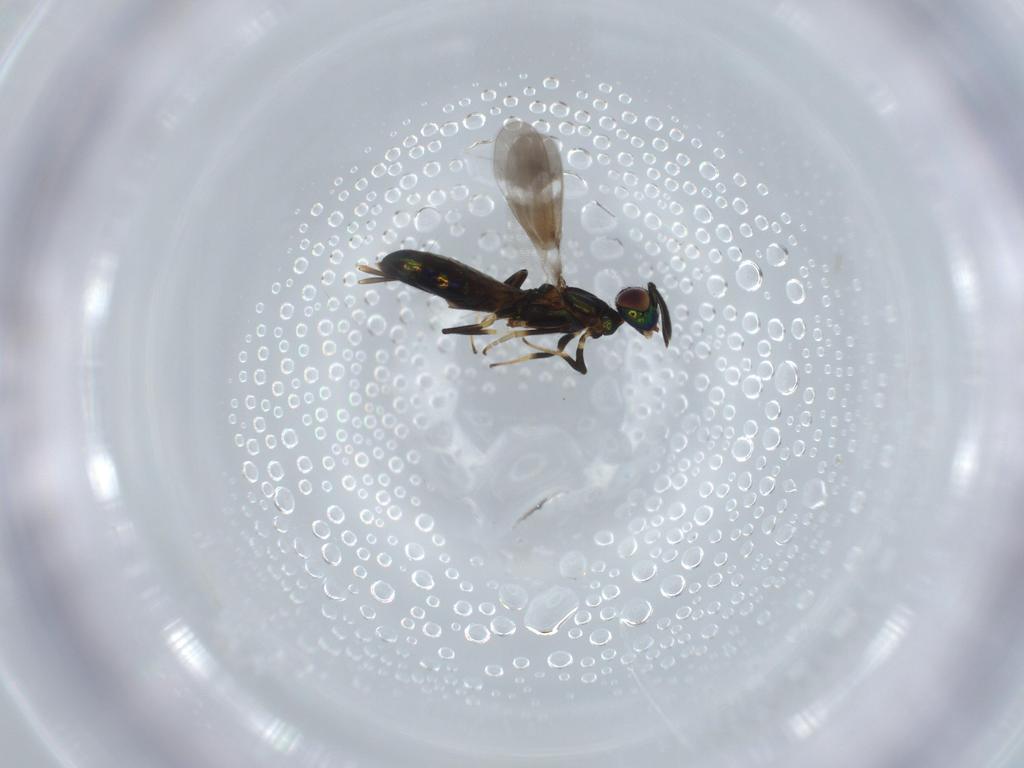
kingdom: Animalia
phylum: Arthropoda
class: Insecta
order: Hymenoptera
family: Eupelmidae
